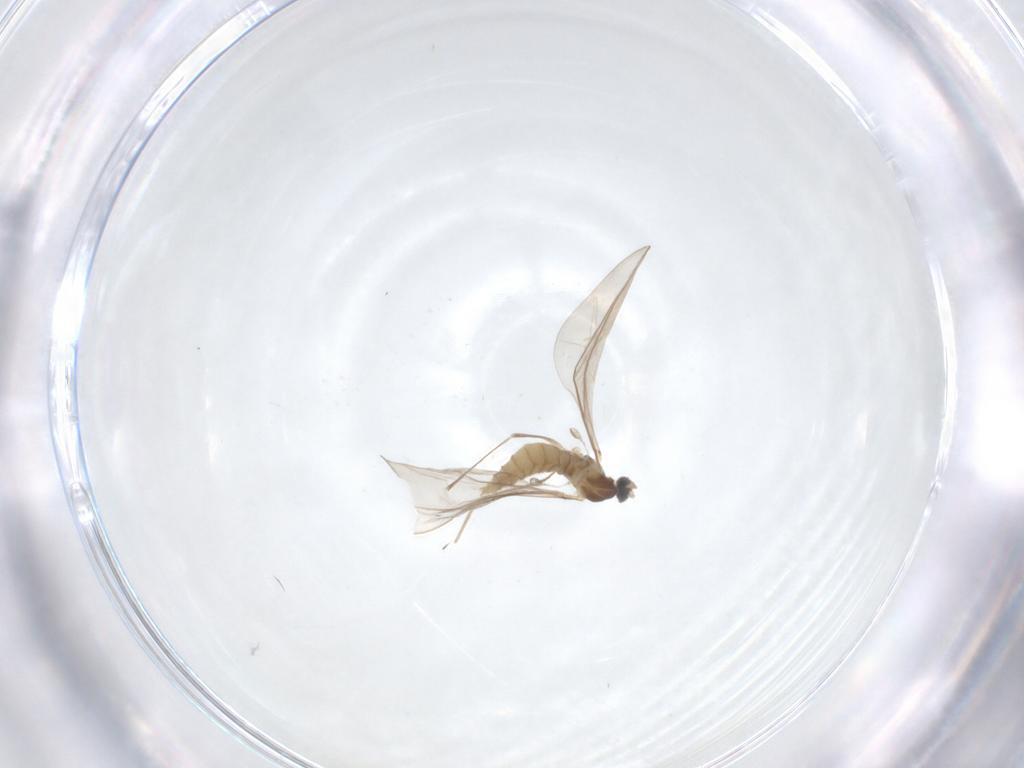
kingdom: Animalia
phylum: Arthropoda
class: Insecta
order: Diptera
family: Cecidomyiidae
